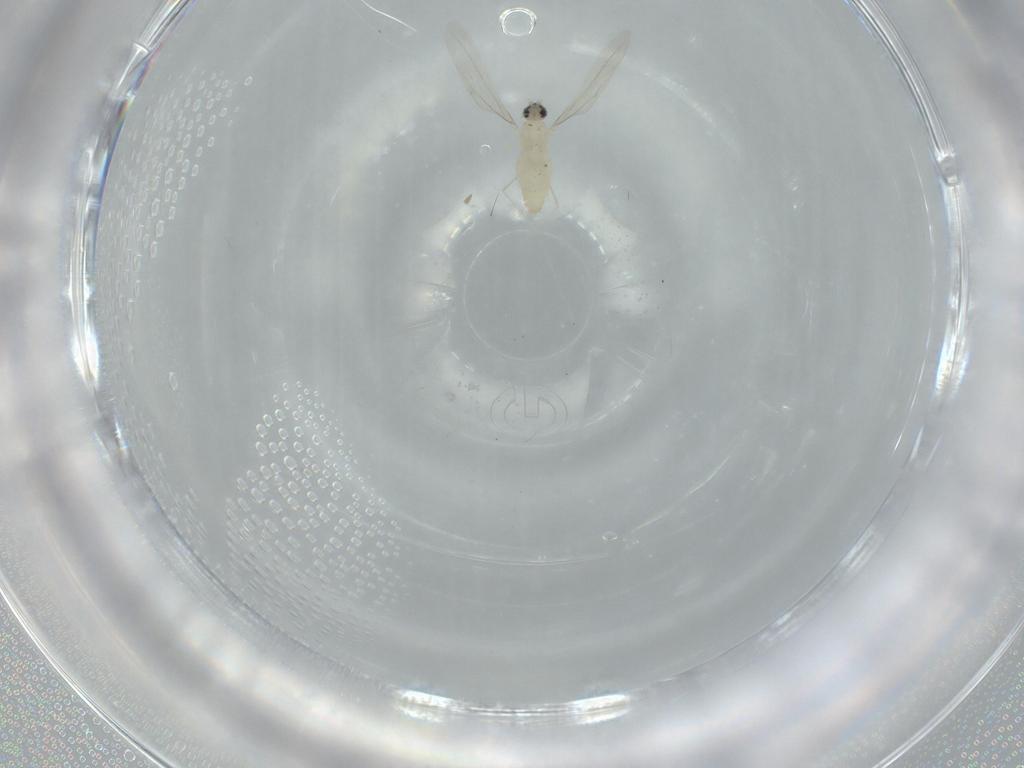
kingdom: Animalia
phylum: Arthropoda
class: Insecta
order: Diptera
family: Cecidomyiidae
